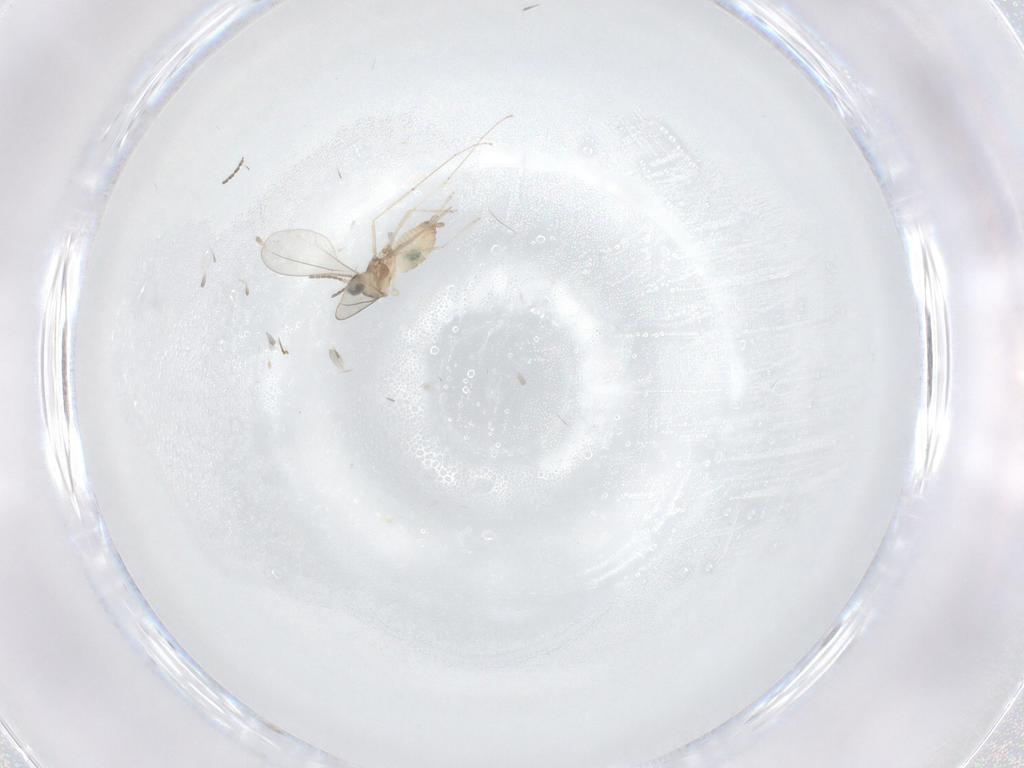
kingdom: Animalia
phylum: Arthropoda
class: Insecta
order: Diptera
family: Cecidomyiidae
